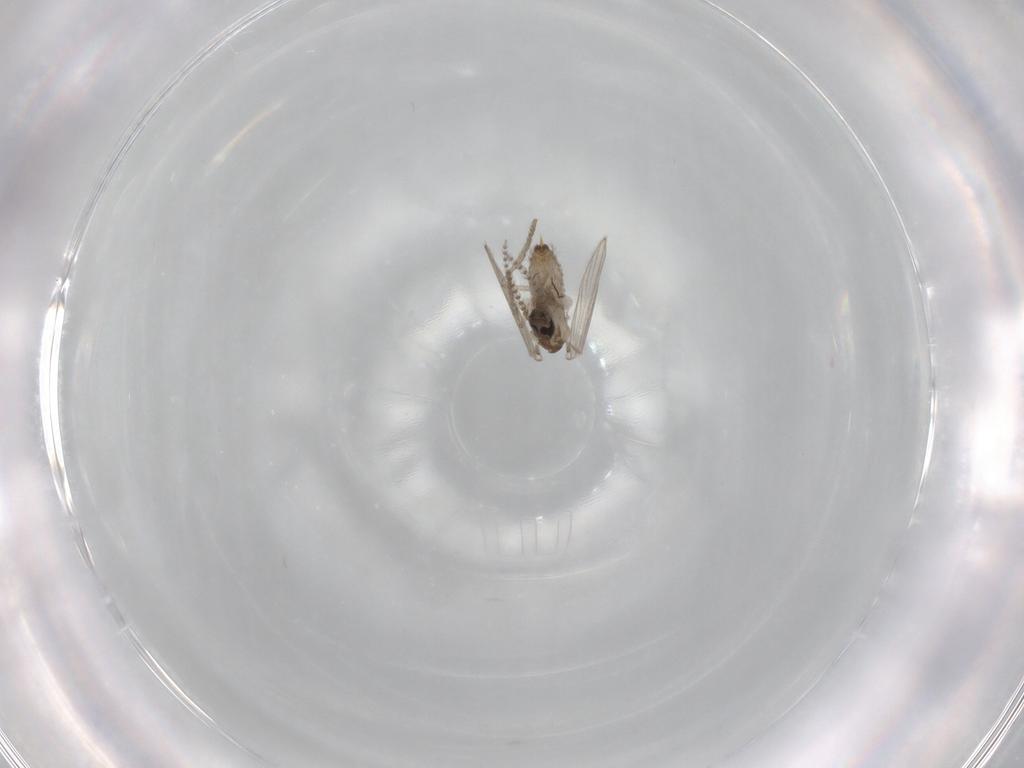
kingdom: Animalia
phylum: Arthropoda
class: Insecta
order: Diptera
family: Psychodidae
